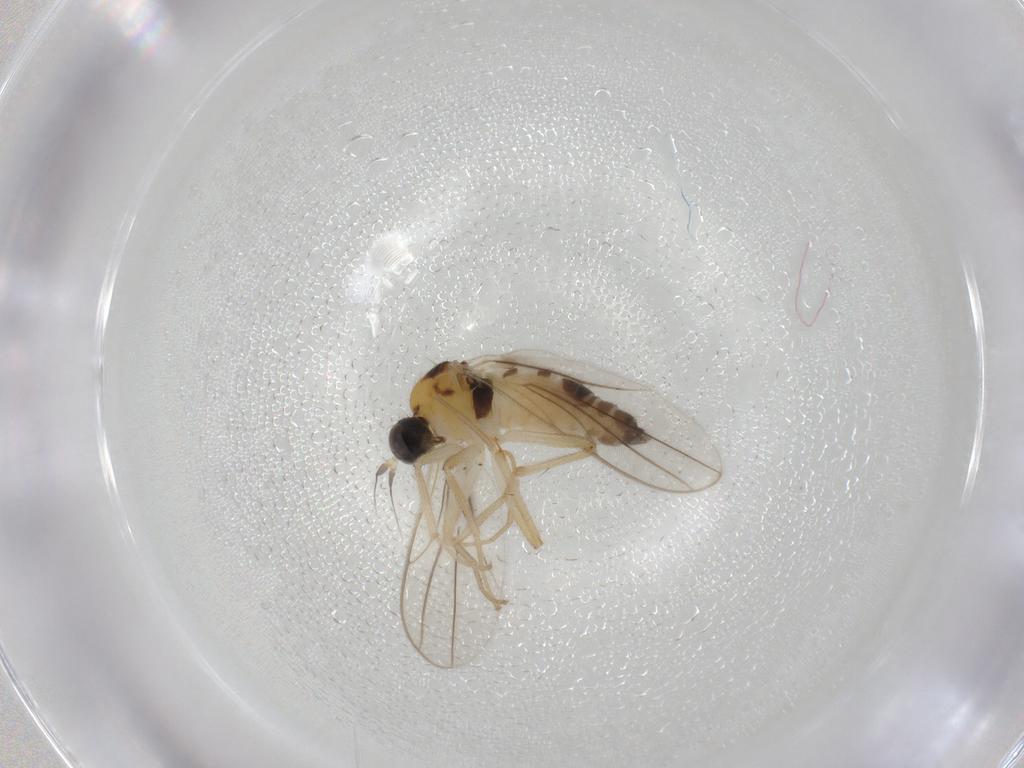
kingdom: Animalia
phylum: Arthropoda
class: Insecta
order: Diptera
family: Hybotidae
